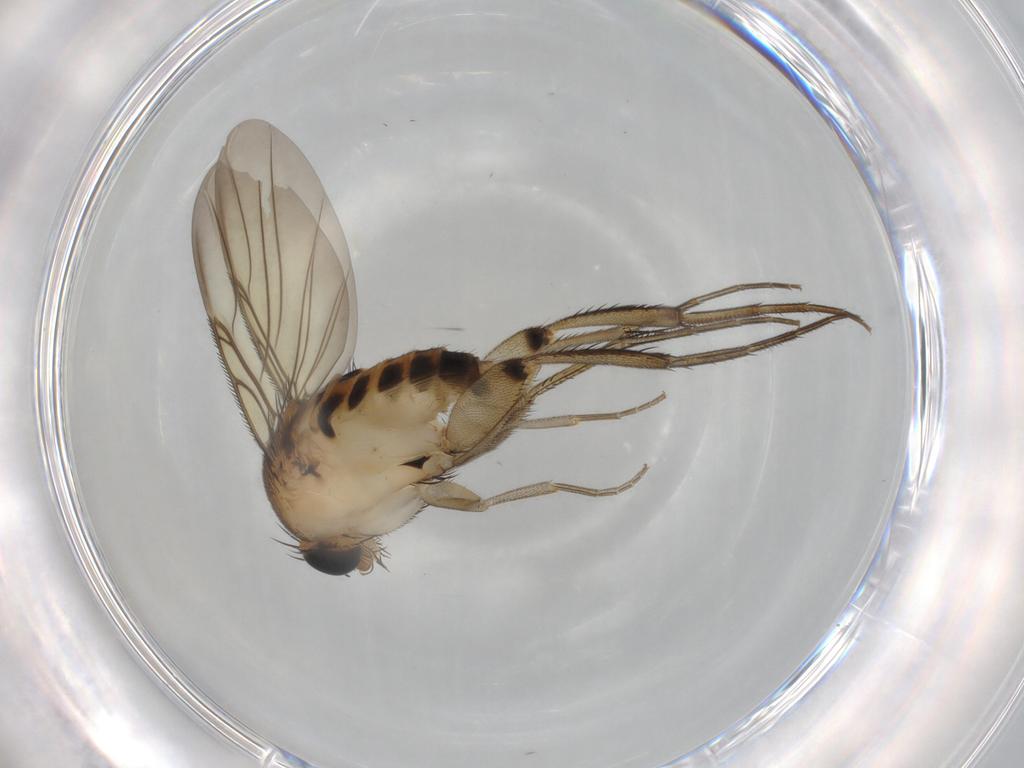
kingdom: Animalia
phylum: Arthropoda
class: Insecta
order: Diptera
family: Phoridae
